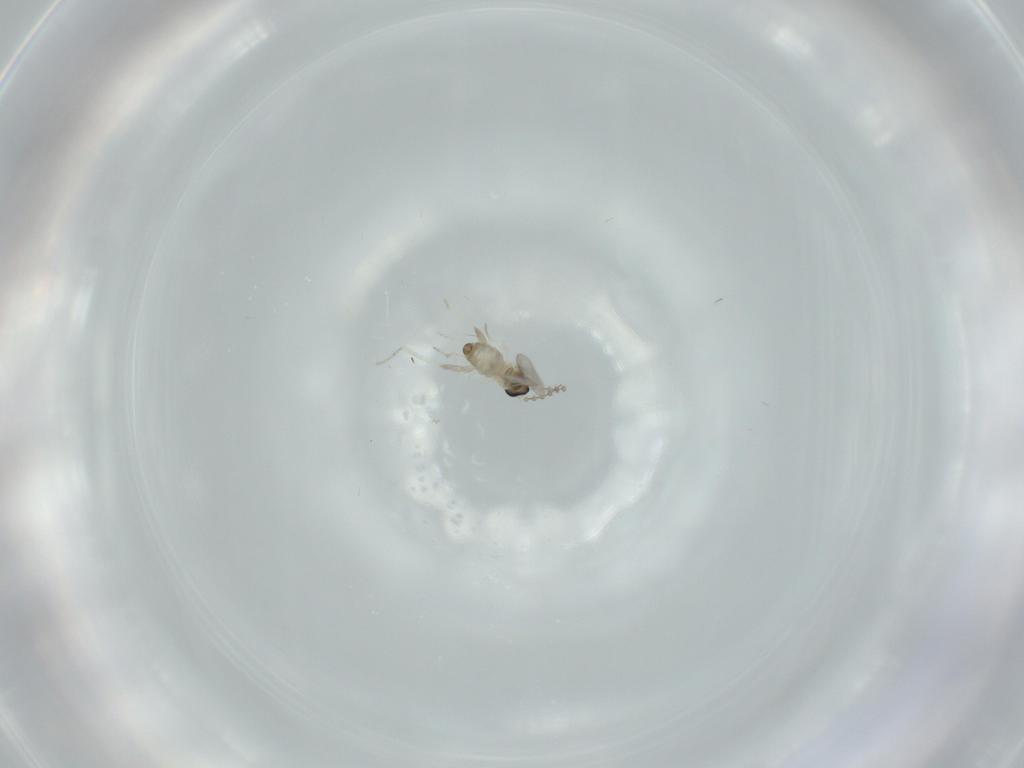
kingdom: Animalia
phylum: Arthropoda
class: Insecta
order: Diptera
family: Cecidomyiidae
